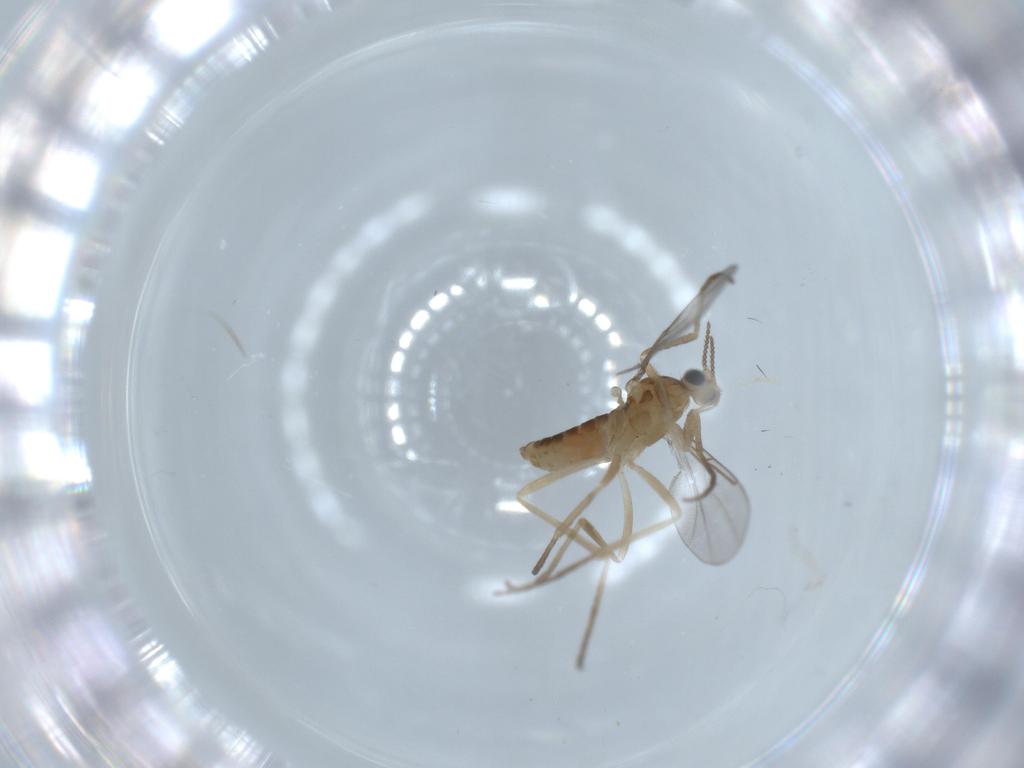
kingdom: Animalia
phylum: Arthropoda
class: Insecta
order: Diptera
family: Cecidomyiidae
